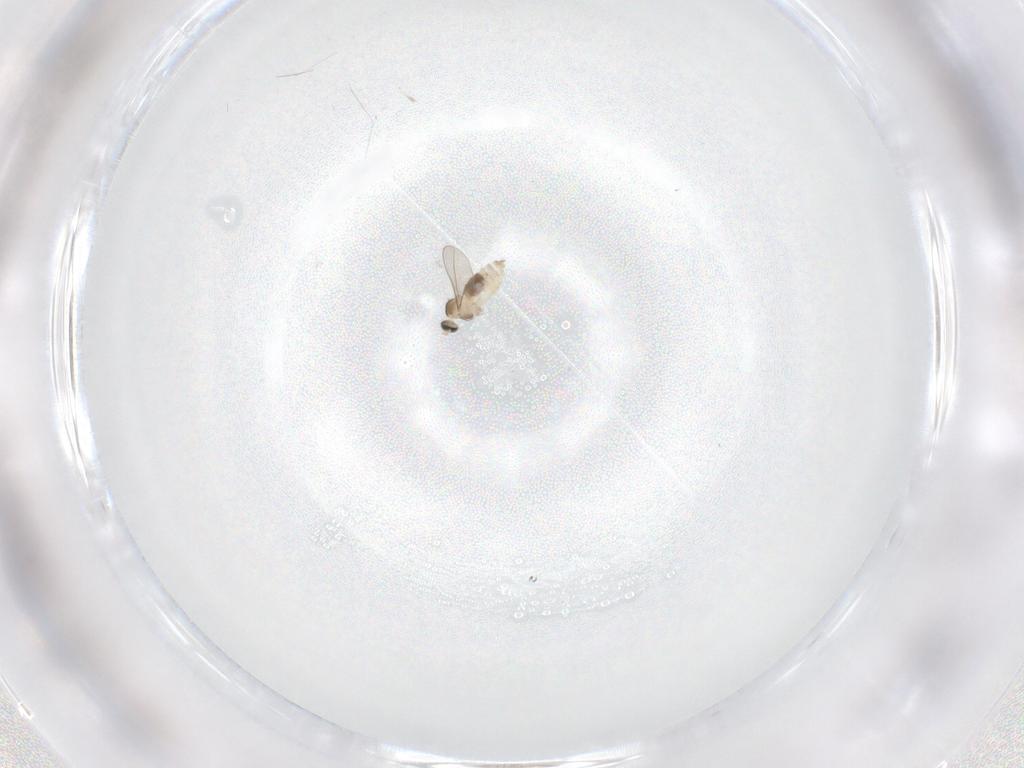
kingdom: Animalia
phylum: Arthropoda
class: Insecta
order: Diptera
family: Cecidomyiidae
